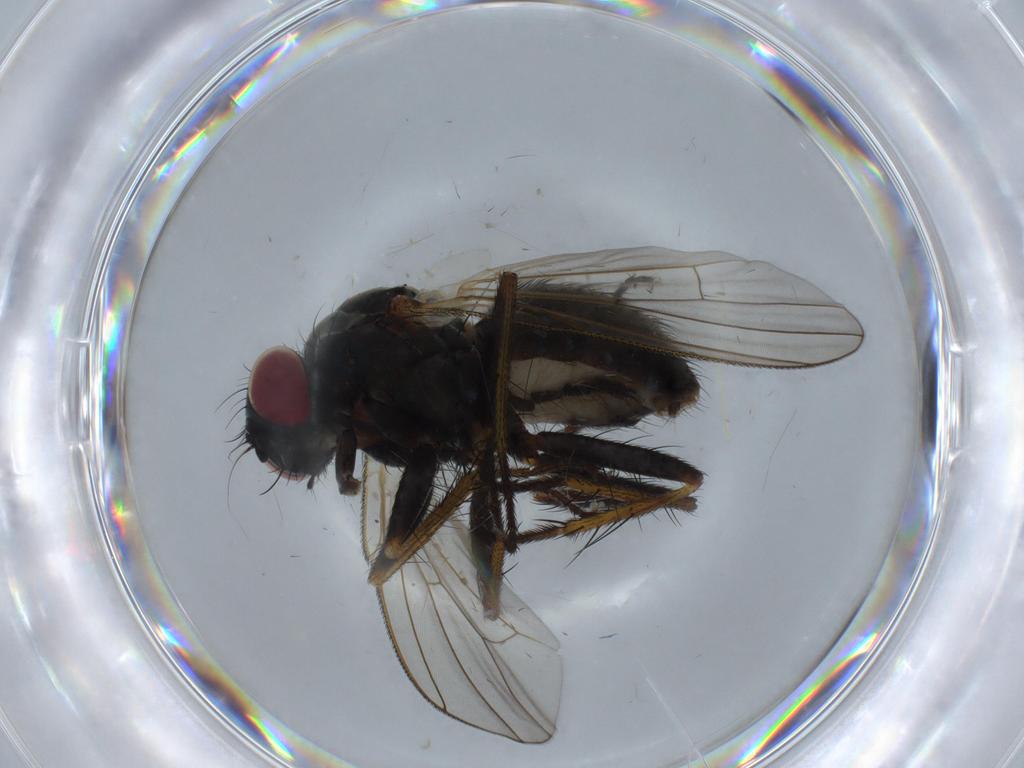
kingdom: Animalia
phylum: Arthropoda
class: Insecta
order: Diptera
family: Muscidae
